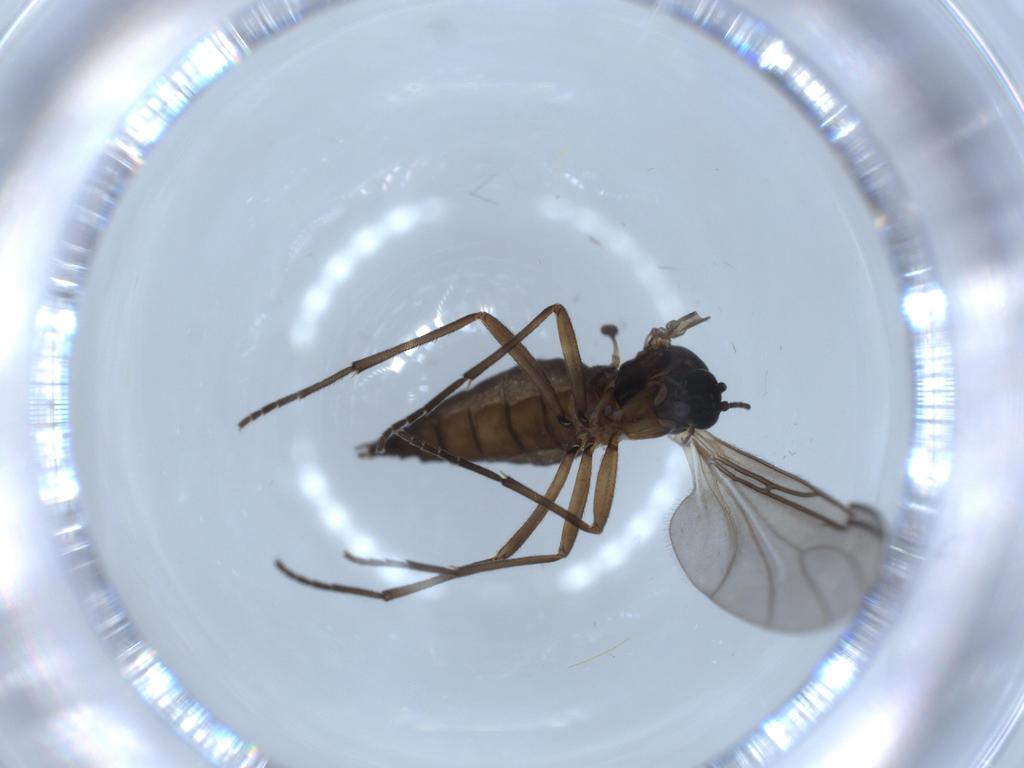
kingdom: Animalia
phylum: Arthropoda
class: Insecta
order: Diptera
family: Sciaridae
